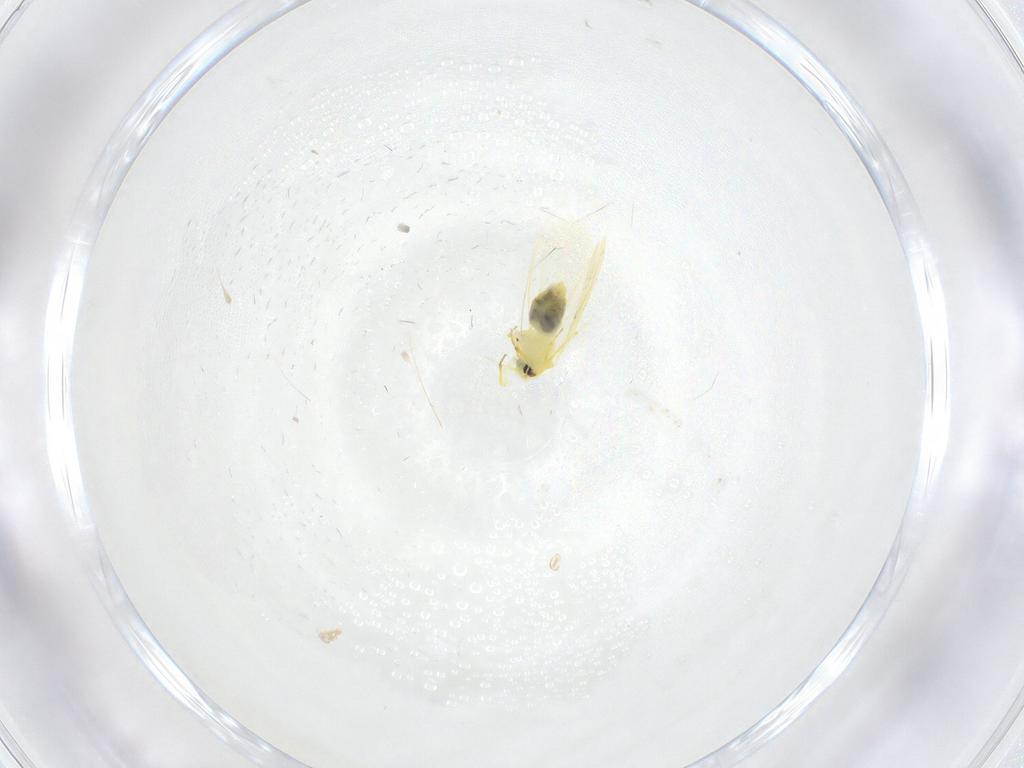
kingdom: Animalia
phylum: Arthropoda
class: Insecta
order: Hemiptera
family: Aleyrodidae
